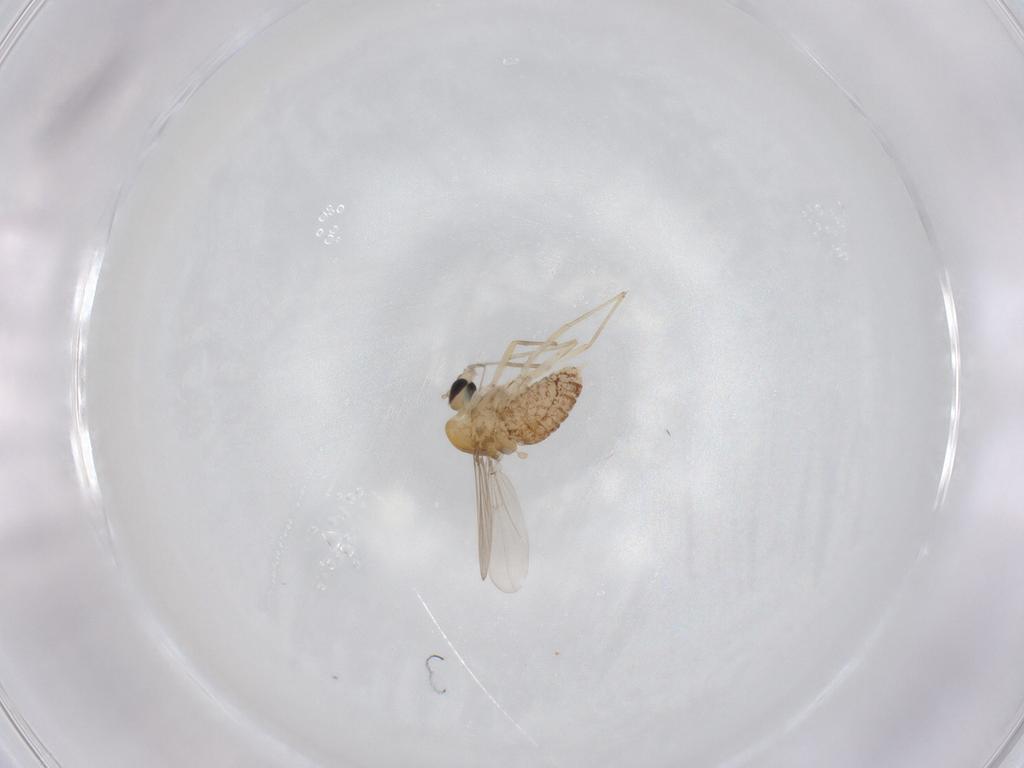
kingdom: Animalia
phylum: Arthropoda
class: Insecta
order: Diptera
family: Chironomidae
